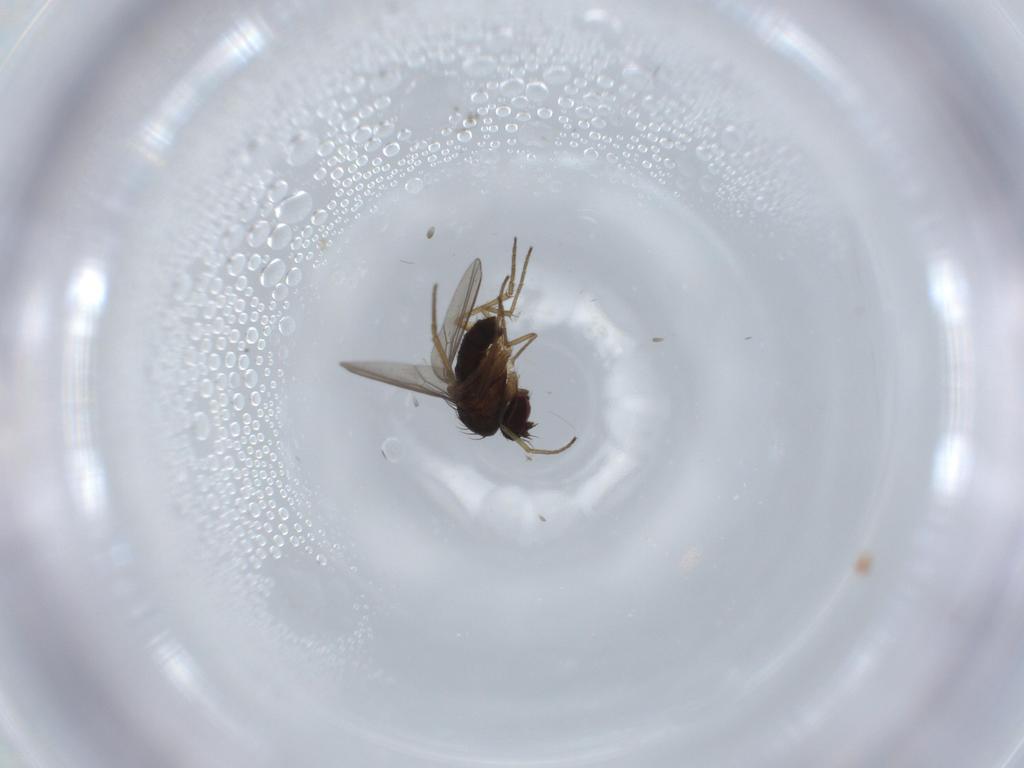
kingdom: Animalia
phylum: Arthropoda
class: Insecta
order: Diptera
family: Dolichopodidae
